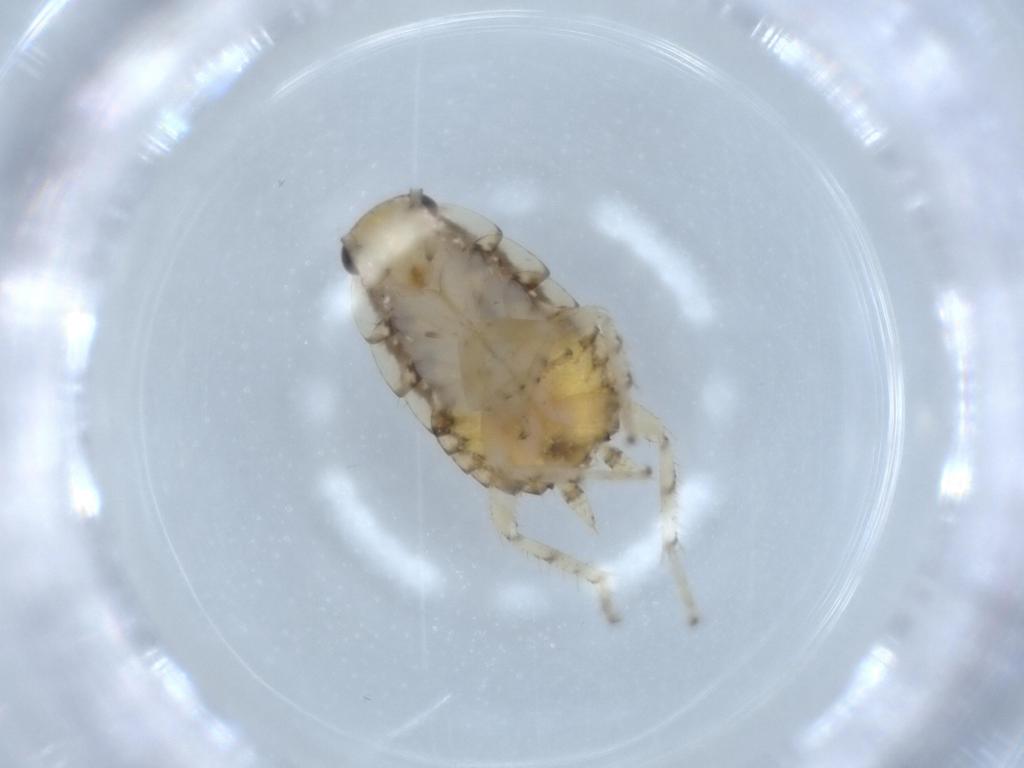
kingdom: Animalia
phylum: Arthropoda
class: Insecta
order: Blattodea
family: Ectobiidae
